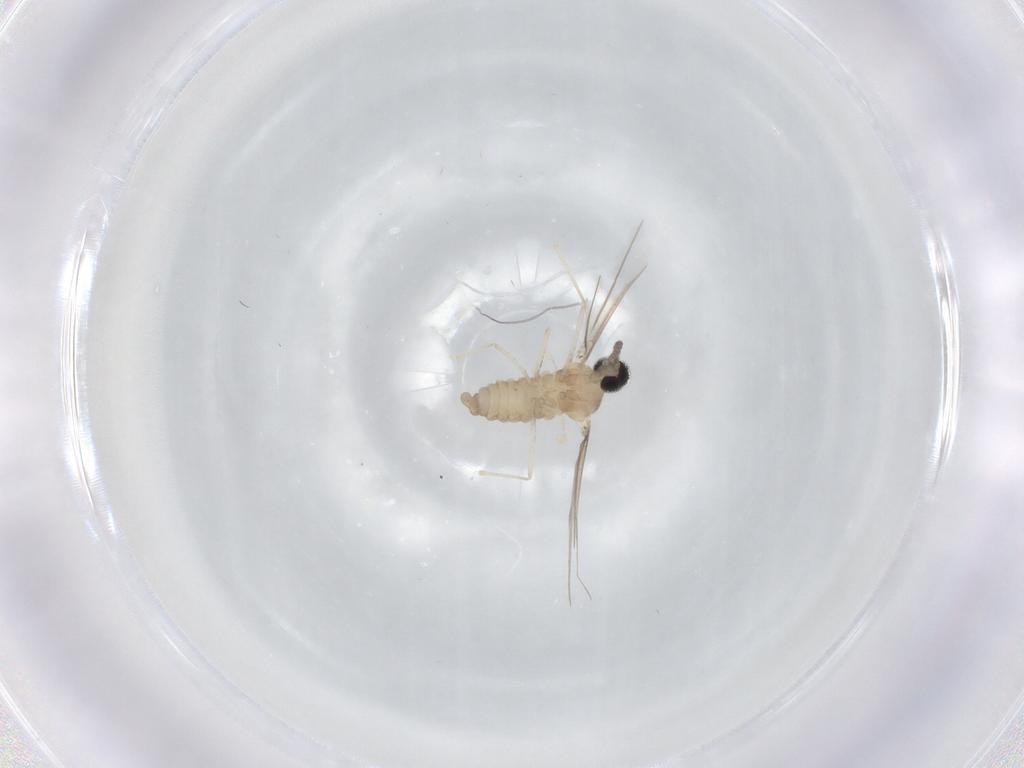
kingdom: Animalia
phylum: Arthropoda
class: Insecta
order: Diptera
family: Cecidomyiidae
